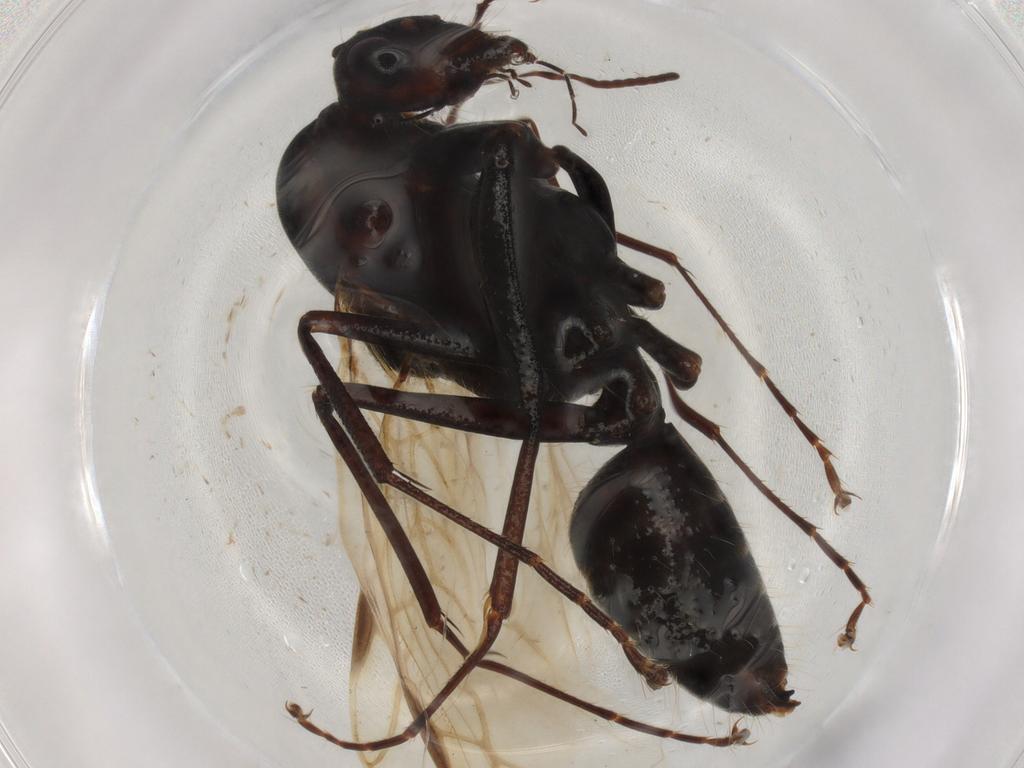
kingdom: Animalia
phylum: Arthropoda
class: Insecta
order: Hymenoptera
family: Formicidae
